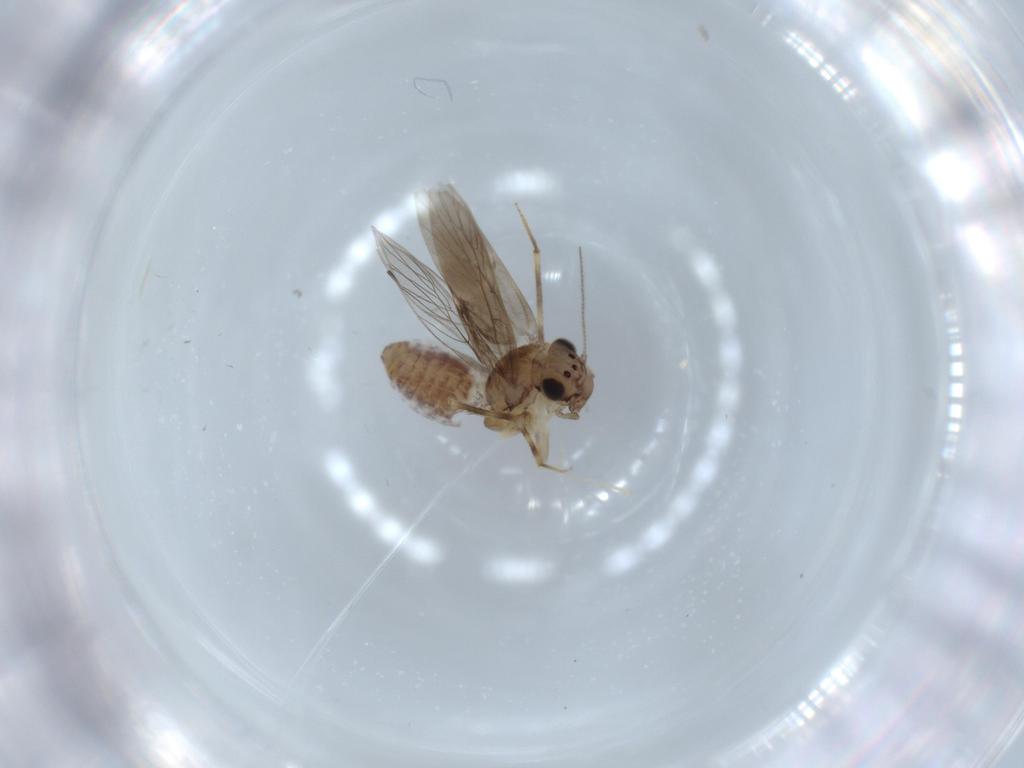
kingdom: Animalia
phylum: Arthropoda
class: Insecta
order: Psocodea
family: Lepidopsocidae
